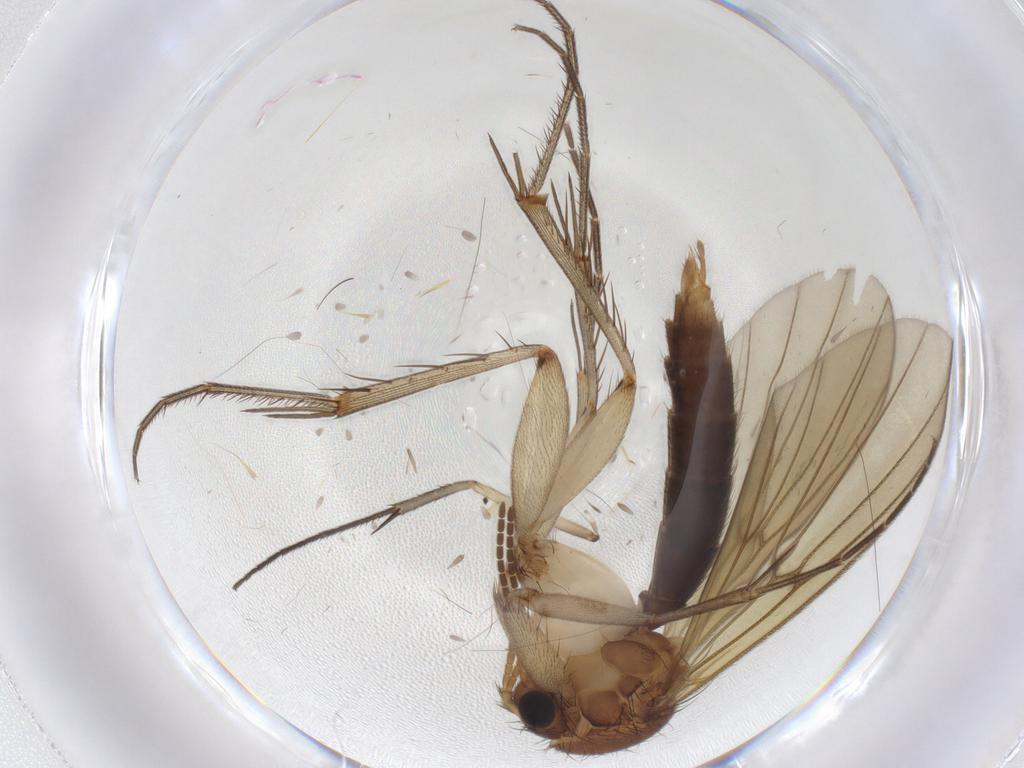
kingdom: Animalia
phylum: Arthropoda
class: Insecta
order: Diptera
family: Mycetophilidae
